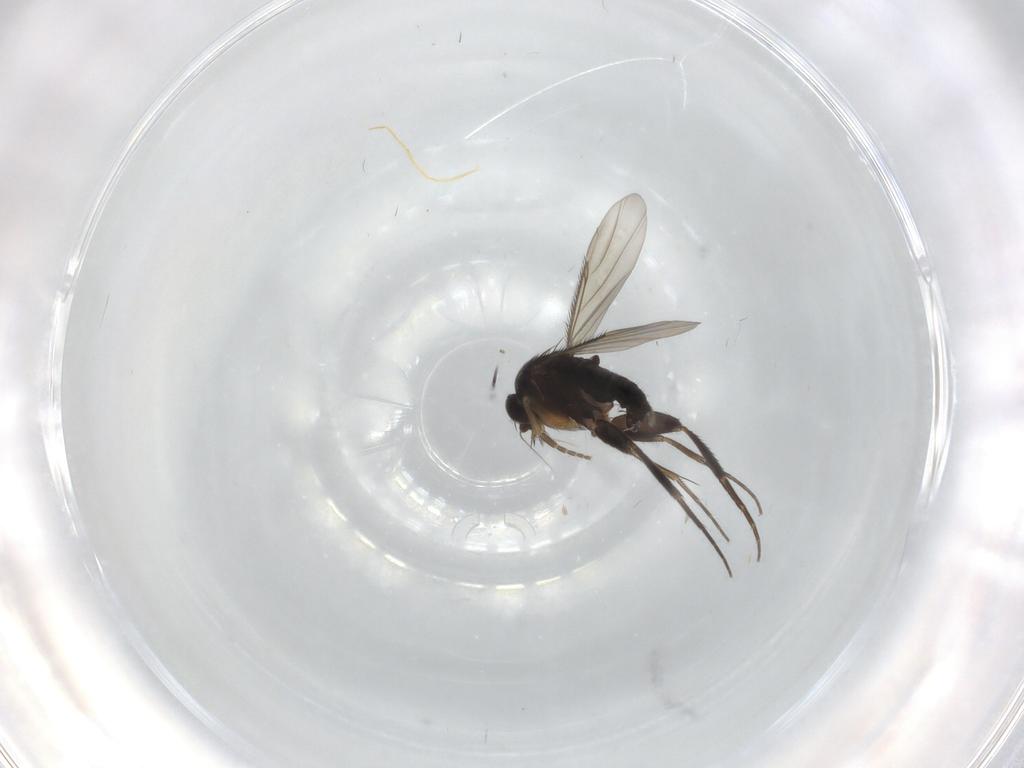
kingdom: Animalia
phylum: Arthropoda
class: Insecta
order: Diptera
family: Phoridae
